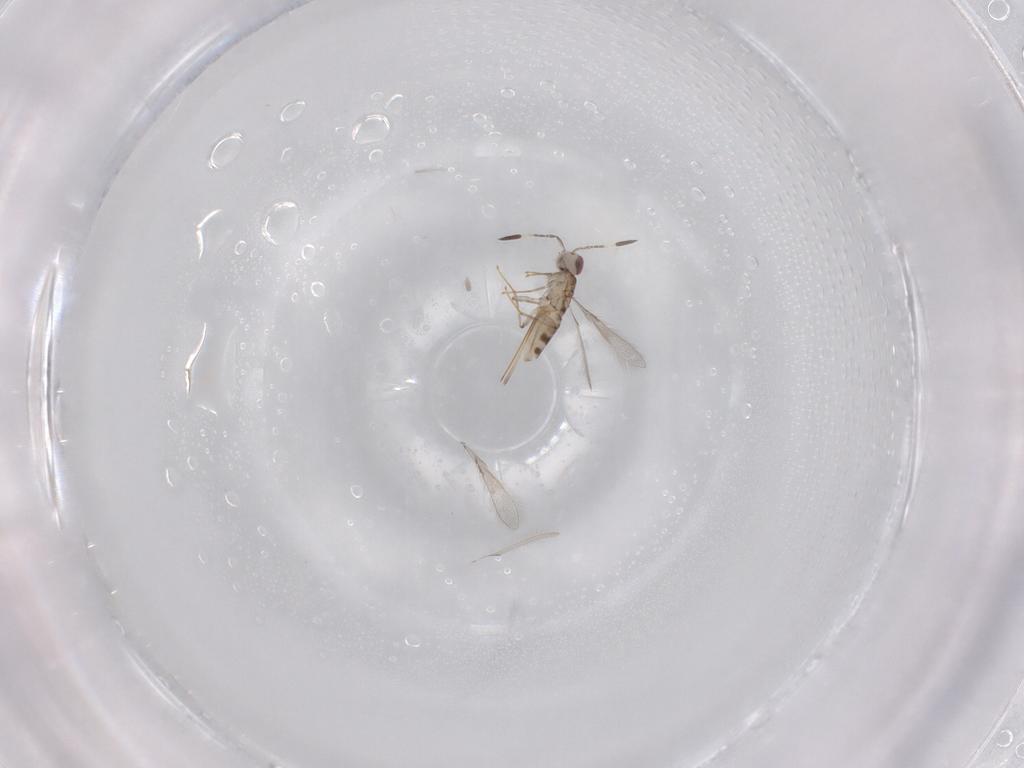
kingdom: Animalia
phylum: Arthropoda
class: Insecta
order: Hymenoptera
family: Mymaridae
